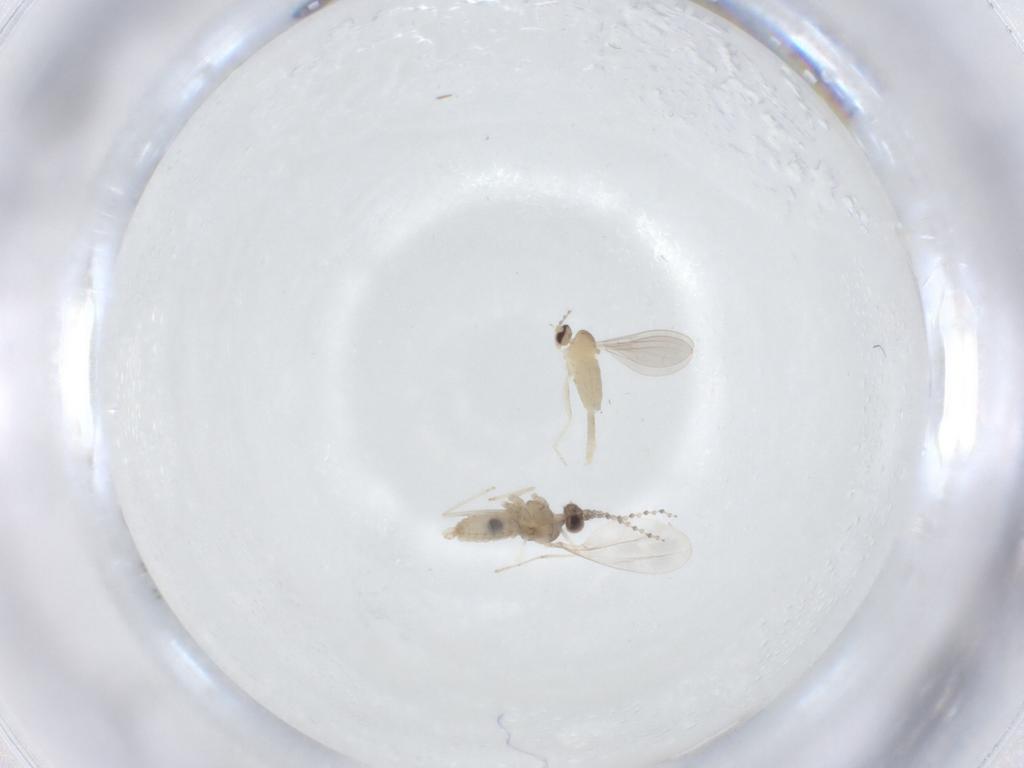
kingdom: Animalia
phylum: Arthropoda
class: Insecta
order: Diptera
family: Cecidomyiidae
